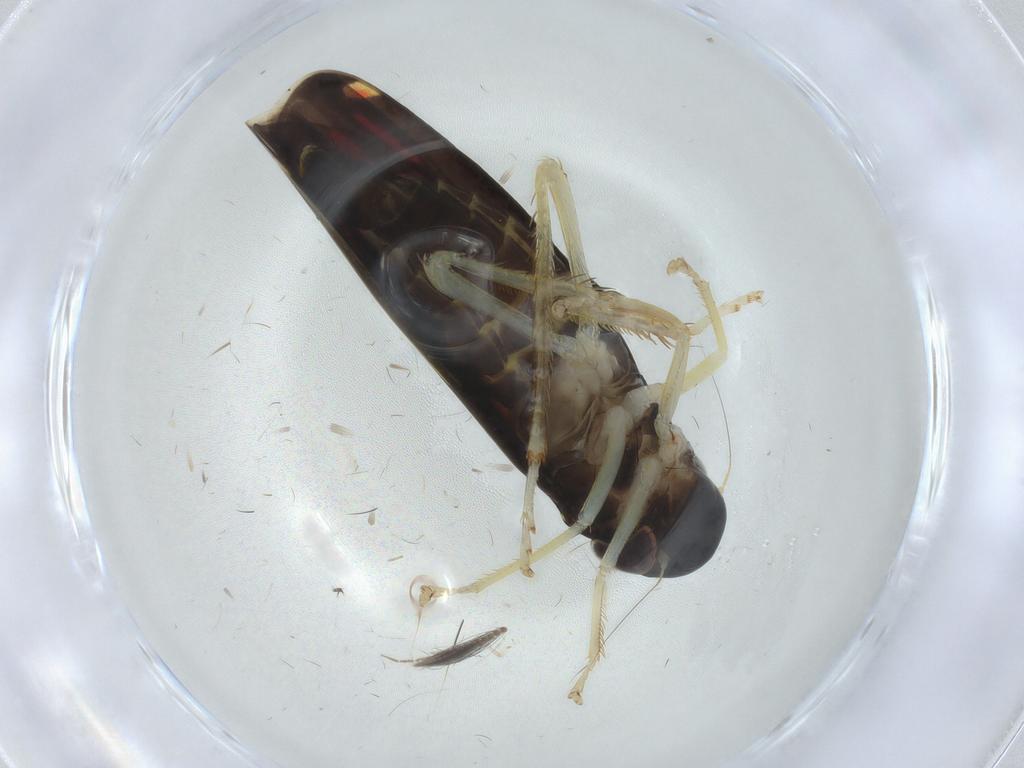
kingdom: Animalia
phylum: Arthropoda
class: Insecta
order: Hemiptera
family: Cicadellidae
